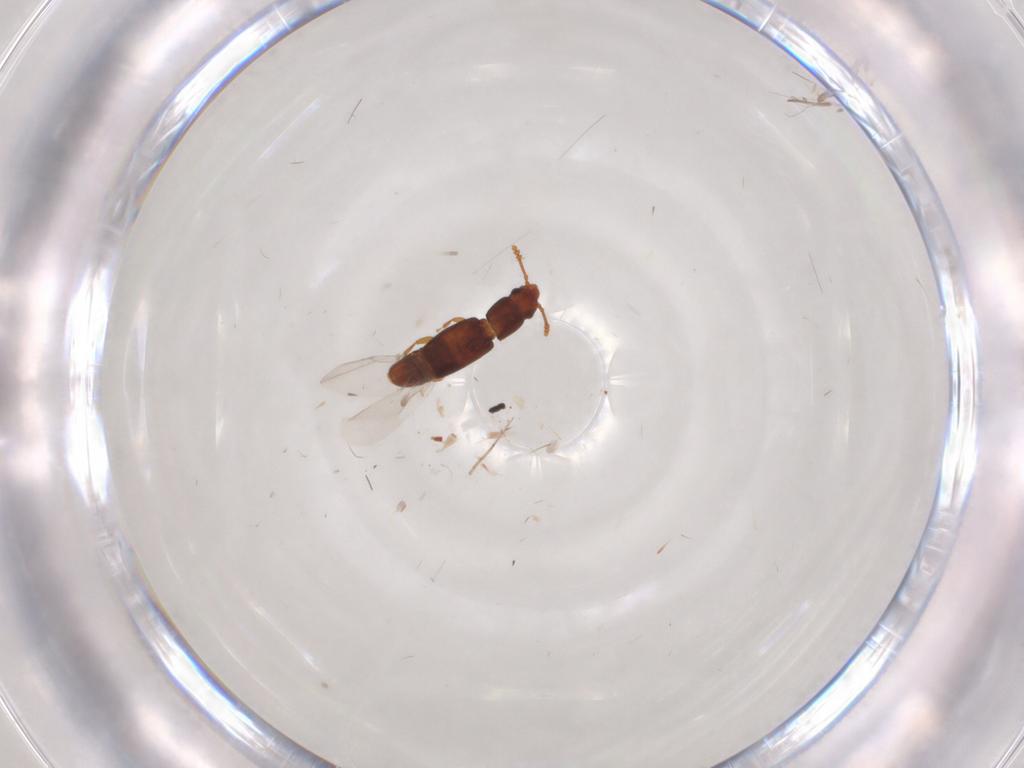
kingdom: Animalia
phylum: Arthropoda
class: Insecta
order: Coleoptera
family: Smicripidae
